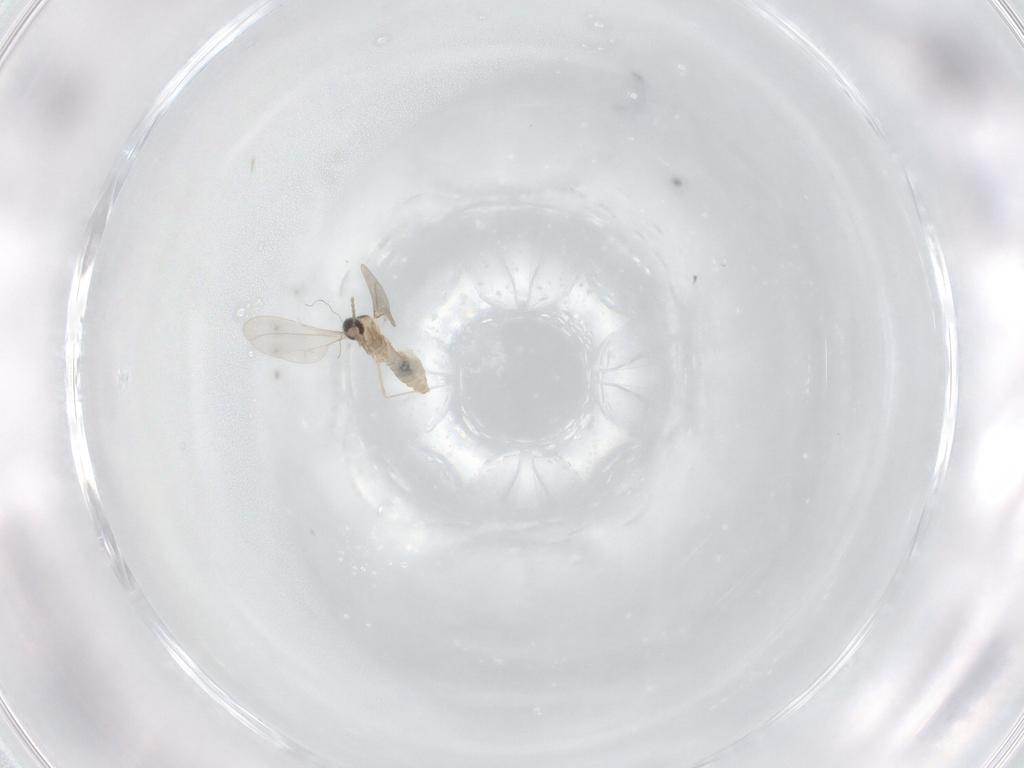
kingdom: Animalia
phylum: Arthropoda
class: Insecta
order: Diptera
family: Cecidomyiidae
